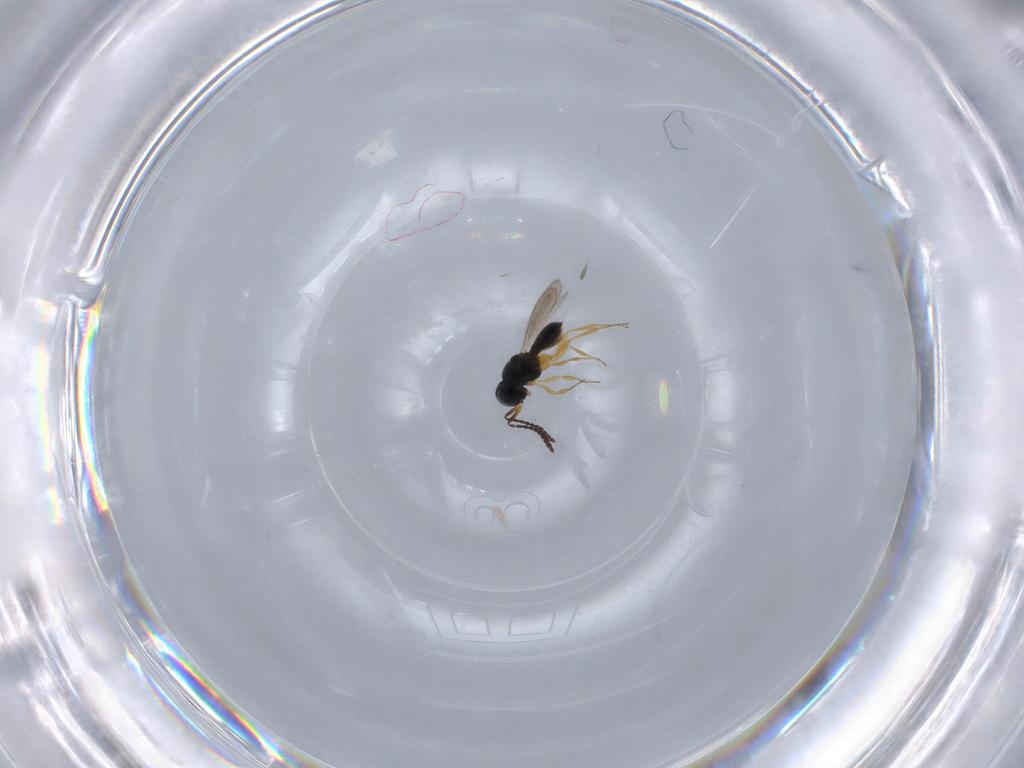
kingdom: Animalia
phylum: Arthropoda
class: Insecta
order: Hymenoptera
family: Scelionidae
